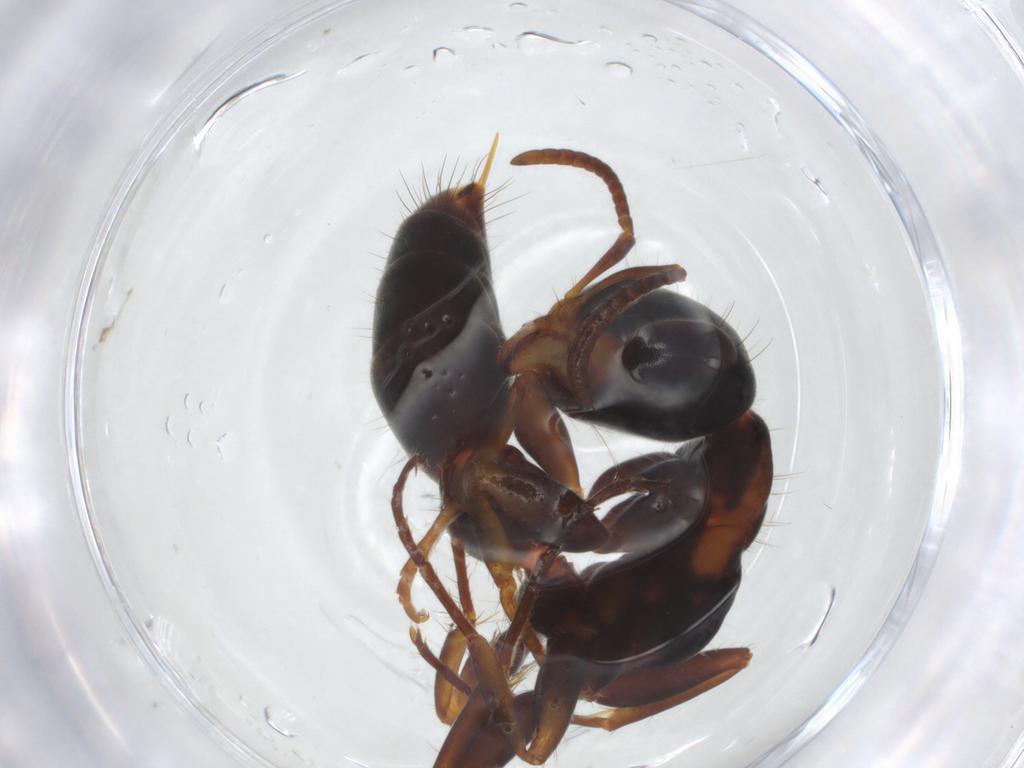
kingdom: Animalia
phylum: Arthropoda
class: Insecta
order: Hymenoptera
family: Formicidae
